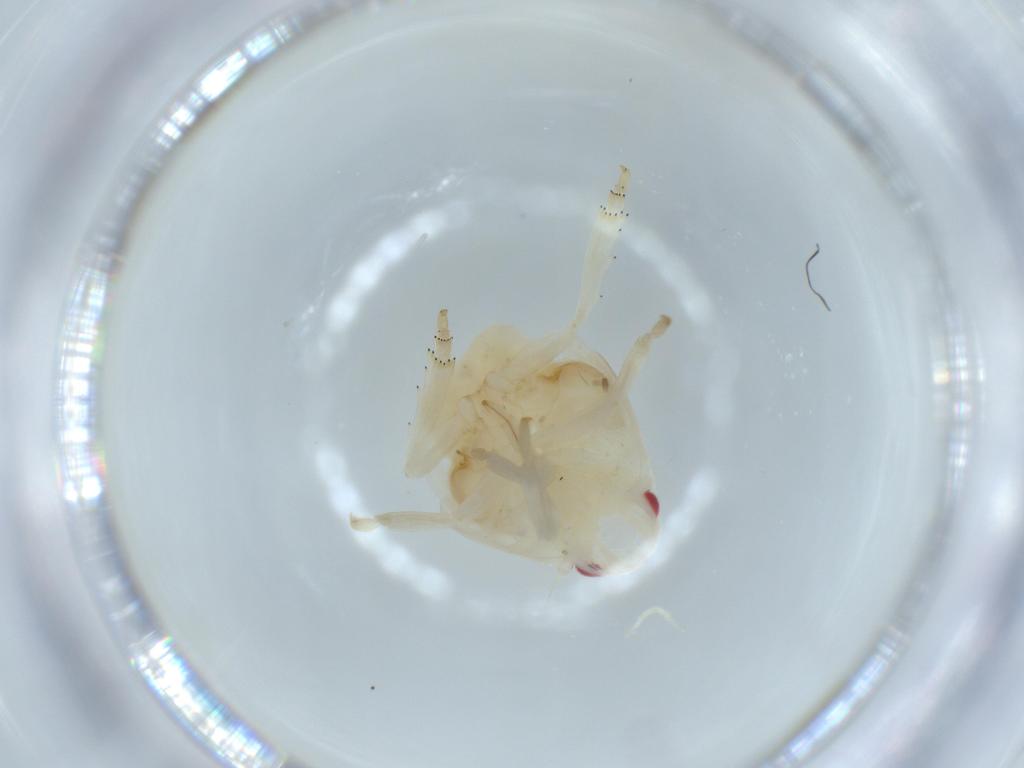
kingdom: Animalia
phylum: Arthropoda
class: Insecta
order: Hemiptera
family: Flatidae
